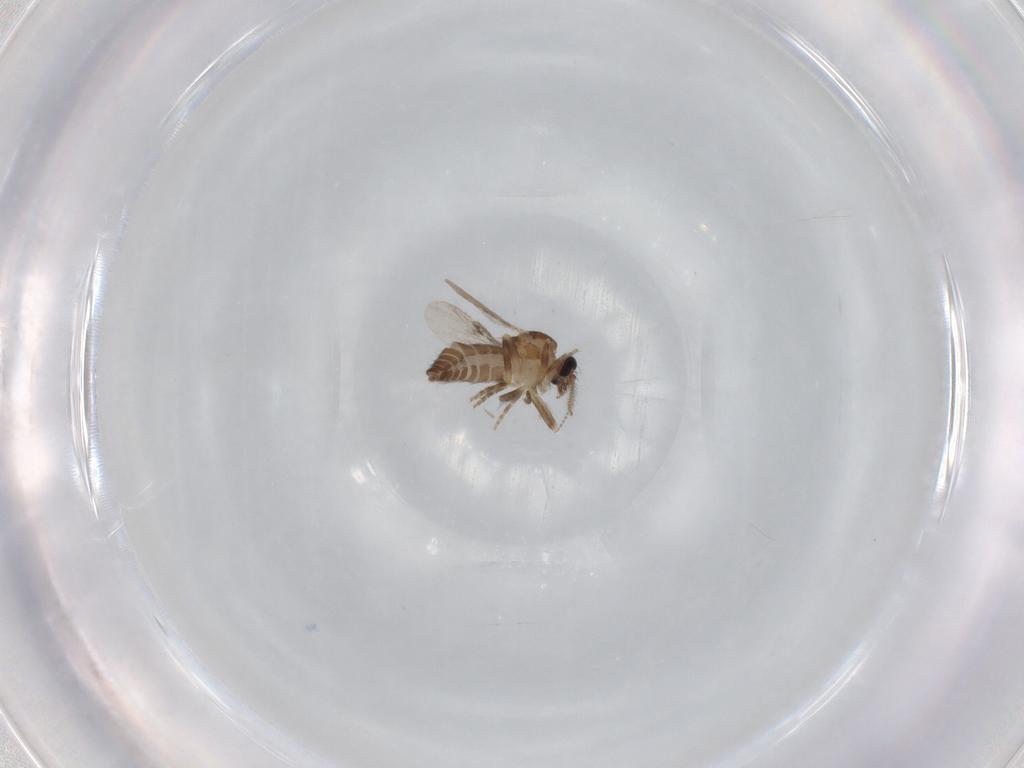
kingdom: Animalia
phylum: Arthropoda
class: Insecta
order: Diptera
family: Ceratopogonidae
